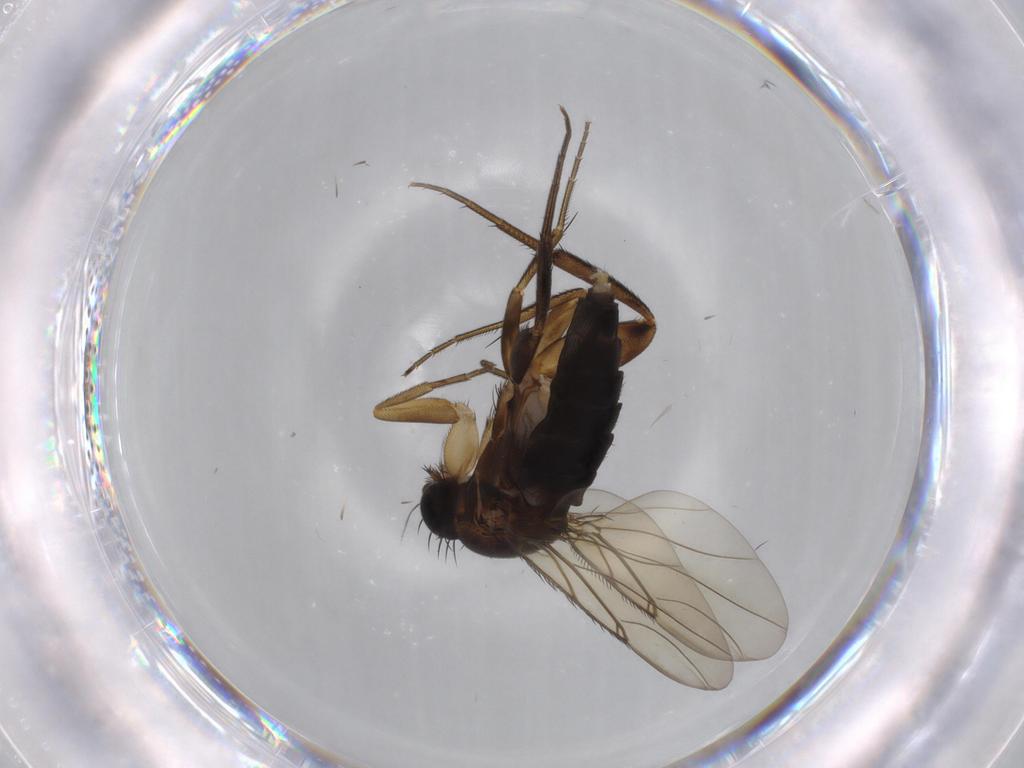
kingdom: Animalia
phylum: Arthropoda
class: Insecta
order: Diptera
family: Phoridae
